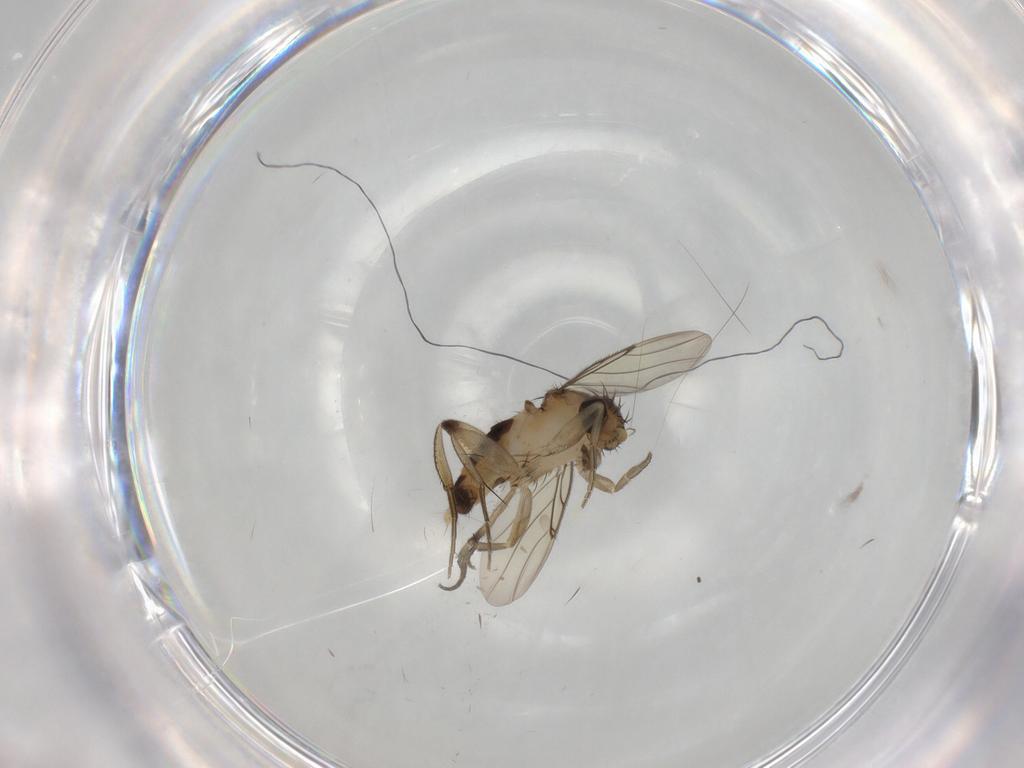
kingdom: Animalia
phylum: Arthropoda
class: Insecta
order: Diptera
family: Phoridae
